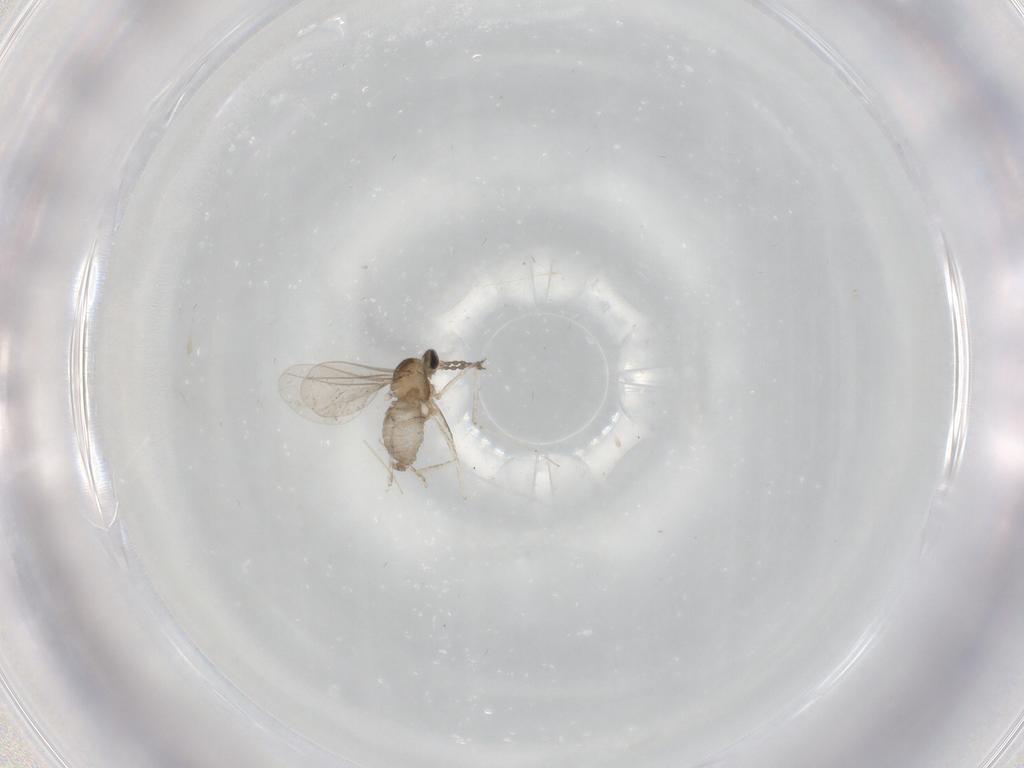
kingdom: Animalia
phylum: Arthropoda
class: Insecta
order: Diptera
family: Cecidomyiidae
